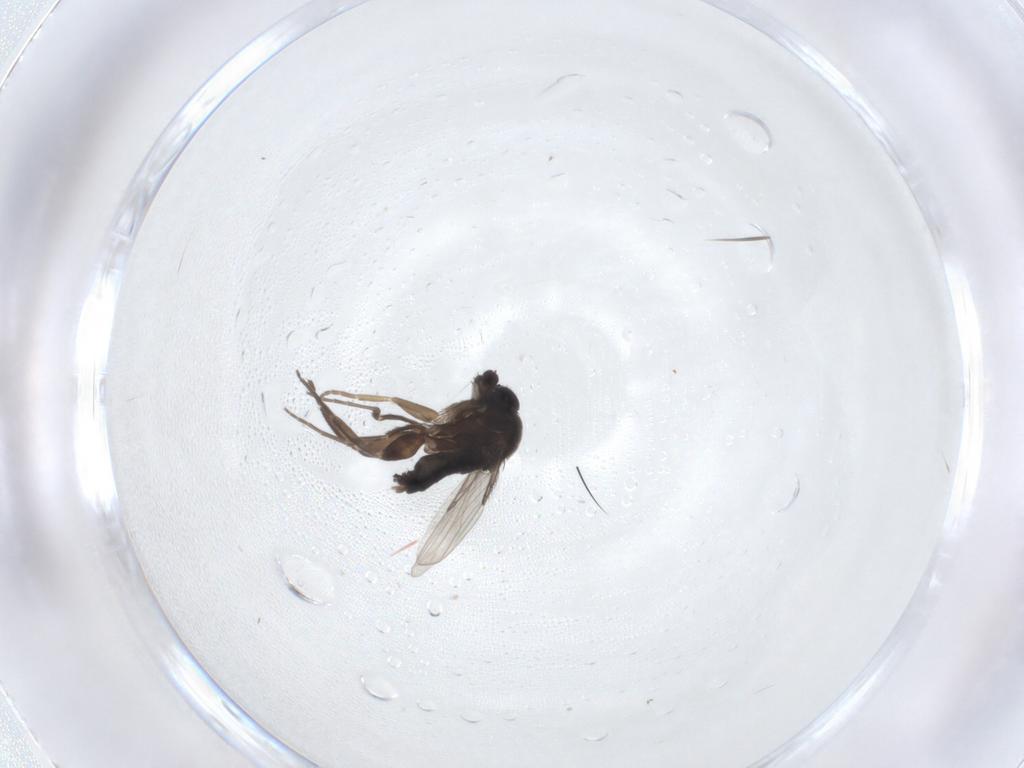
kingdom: Animalia
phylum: Arthropoda
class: Insecta
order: Diptera
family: Phoridae
